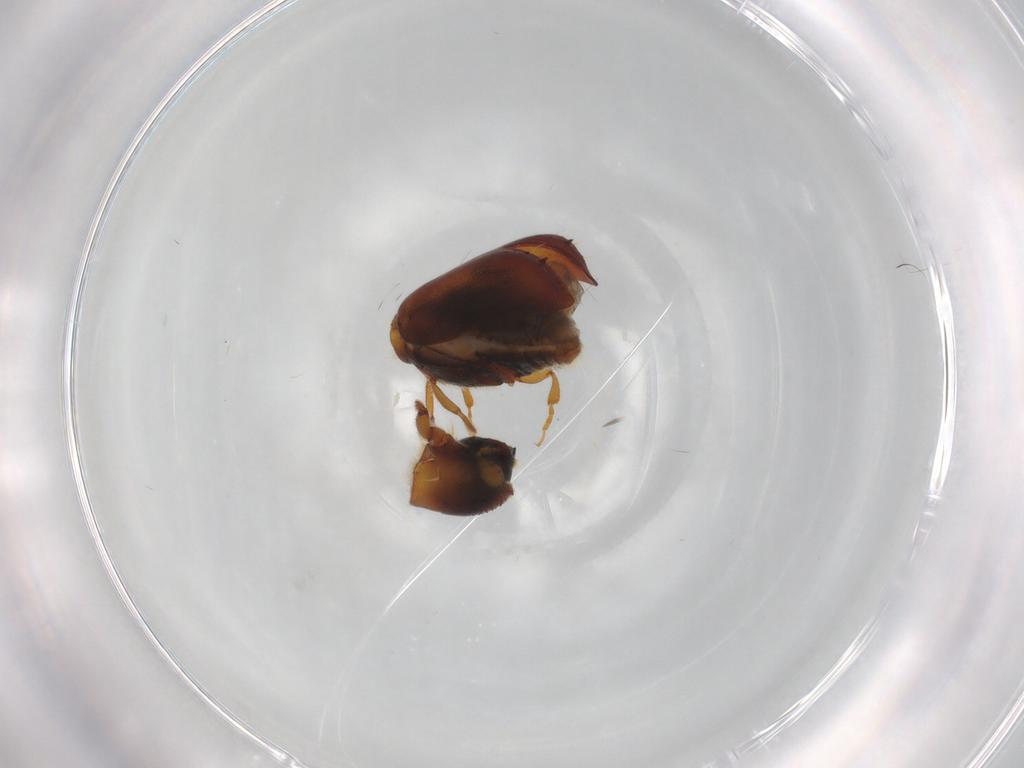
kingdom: Animalia
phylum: Arthropoda
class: Insecta
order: Coleoptera
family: Curculionidae
